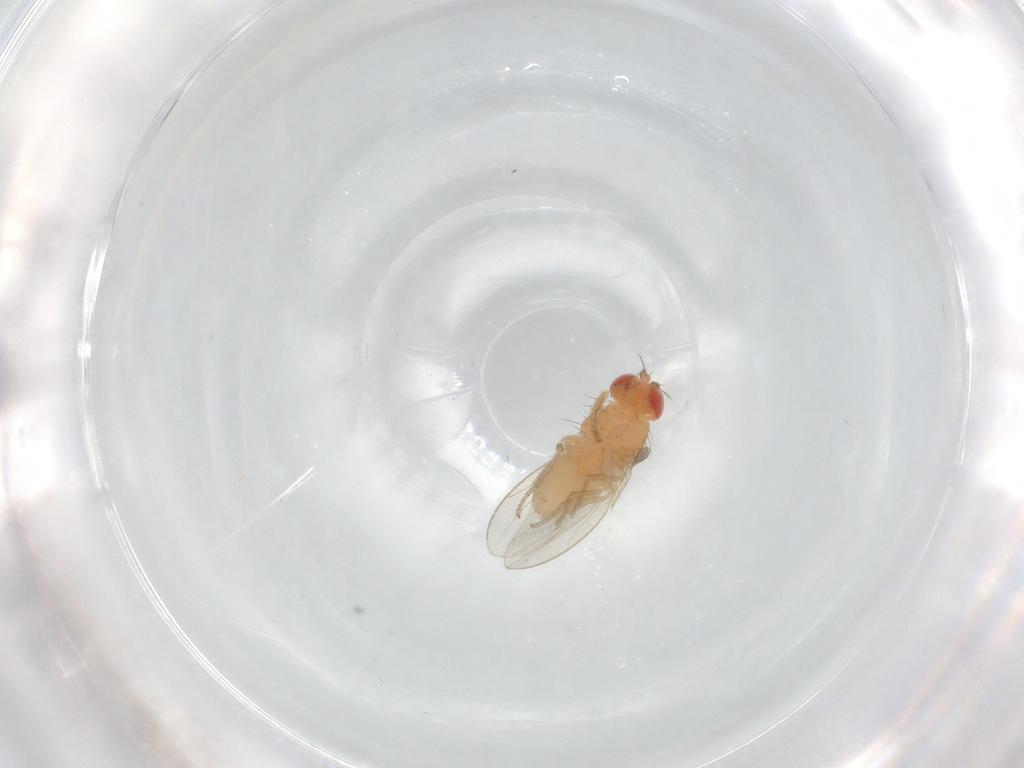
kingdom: Animalia
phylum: Arthropoda
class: Insecta
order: Diptera
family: Drosophilidae
